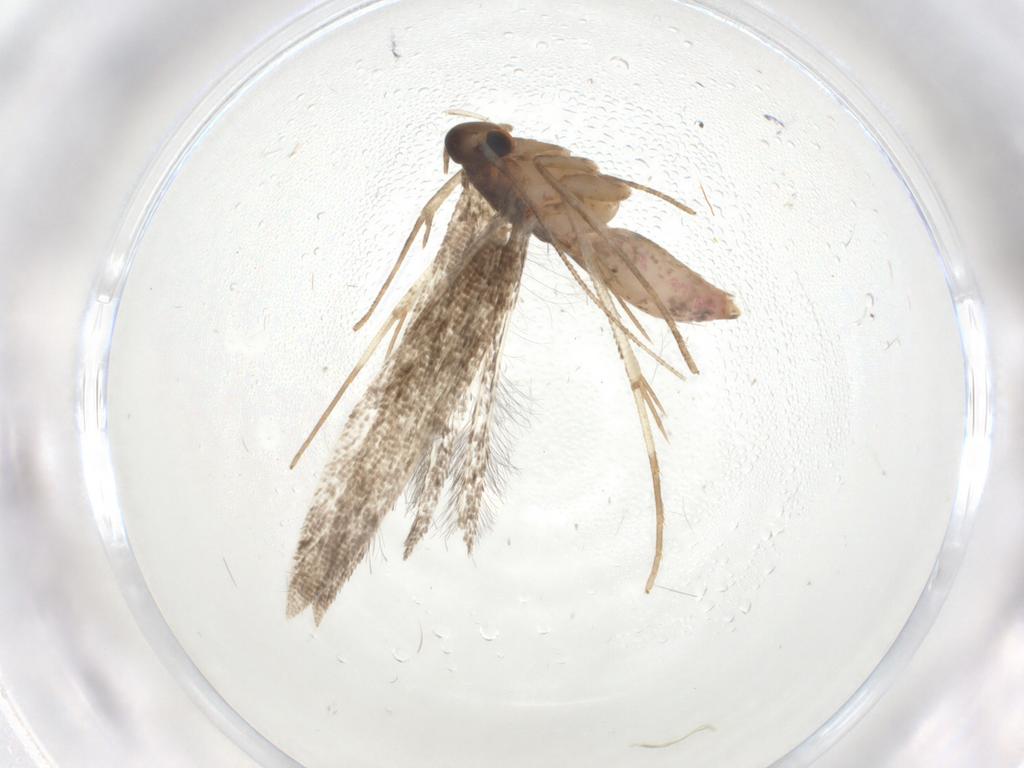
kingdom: Animalia
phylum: Arthropoda
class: Insecta
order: Lepidoptera
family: Gelechiidae
